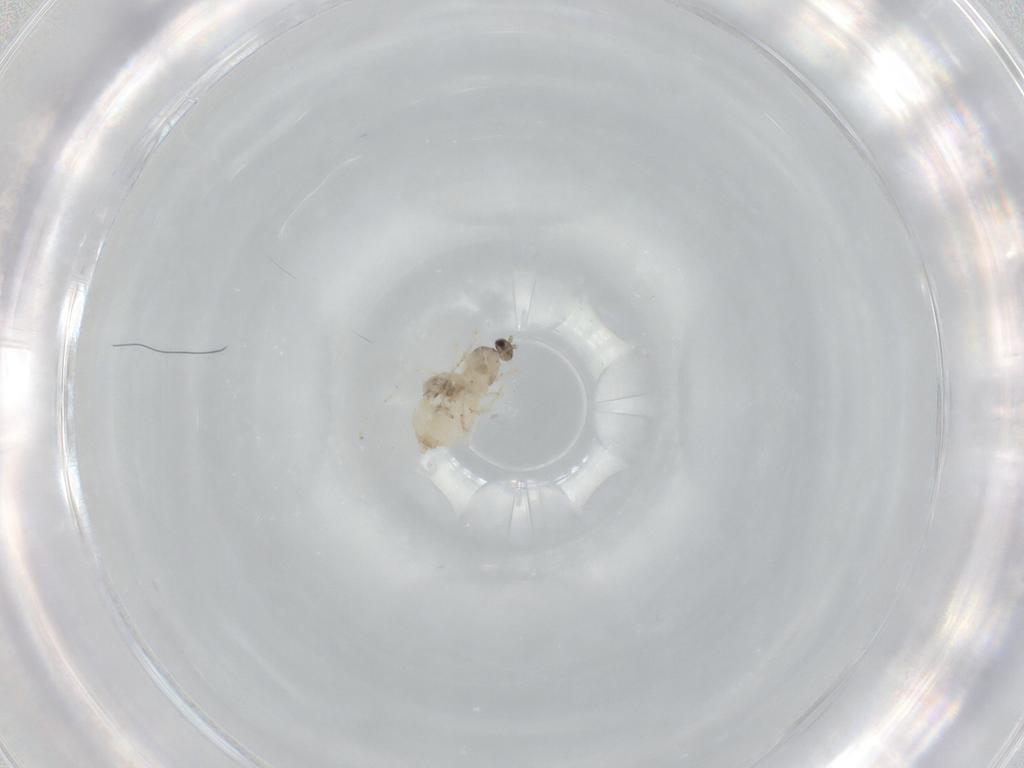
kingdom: Animalia
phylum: Arthropoda
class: Insecta
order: Diptera
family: Cecidomyiidae
